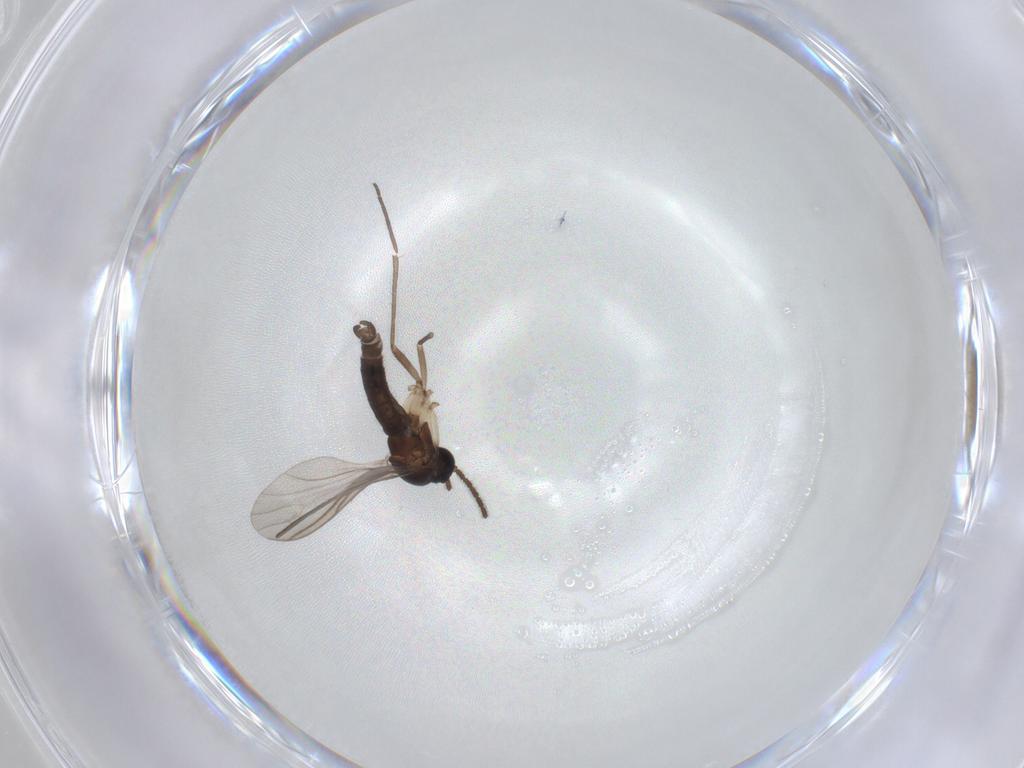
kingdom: Animalia
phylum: Arthropoda
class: Insecta
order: Diptera
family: Sciaridae
